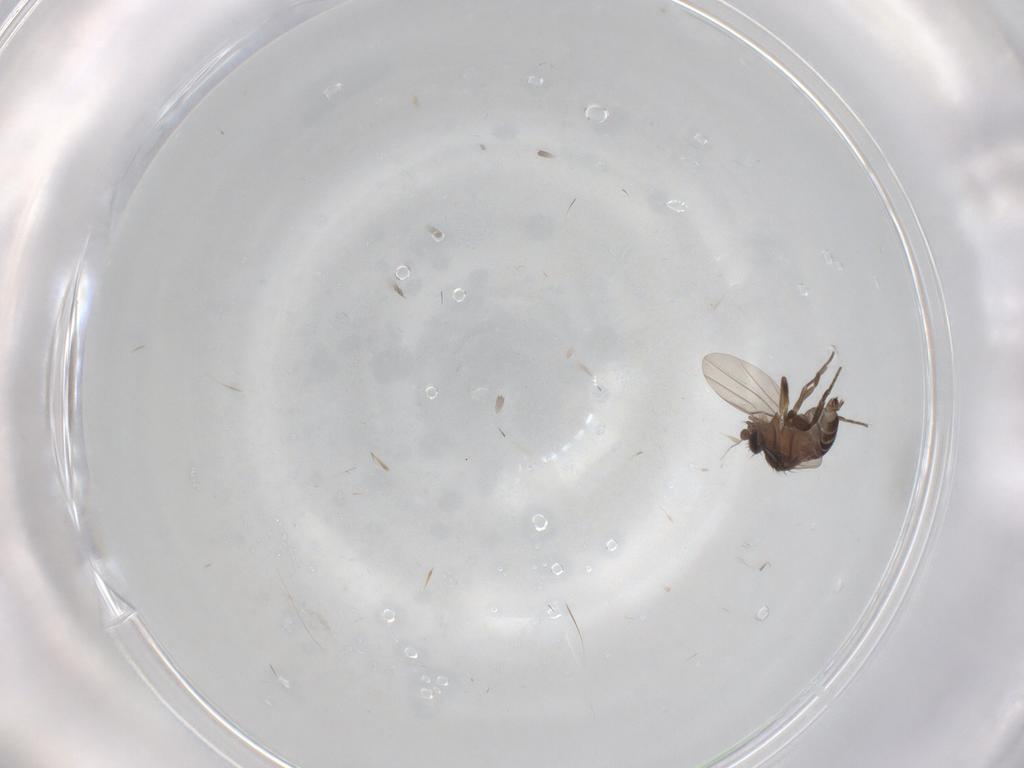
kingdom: Animalia
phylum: Arthropoda
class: Insecta
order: Diptera
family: Phoridae
